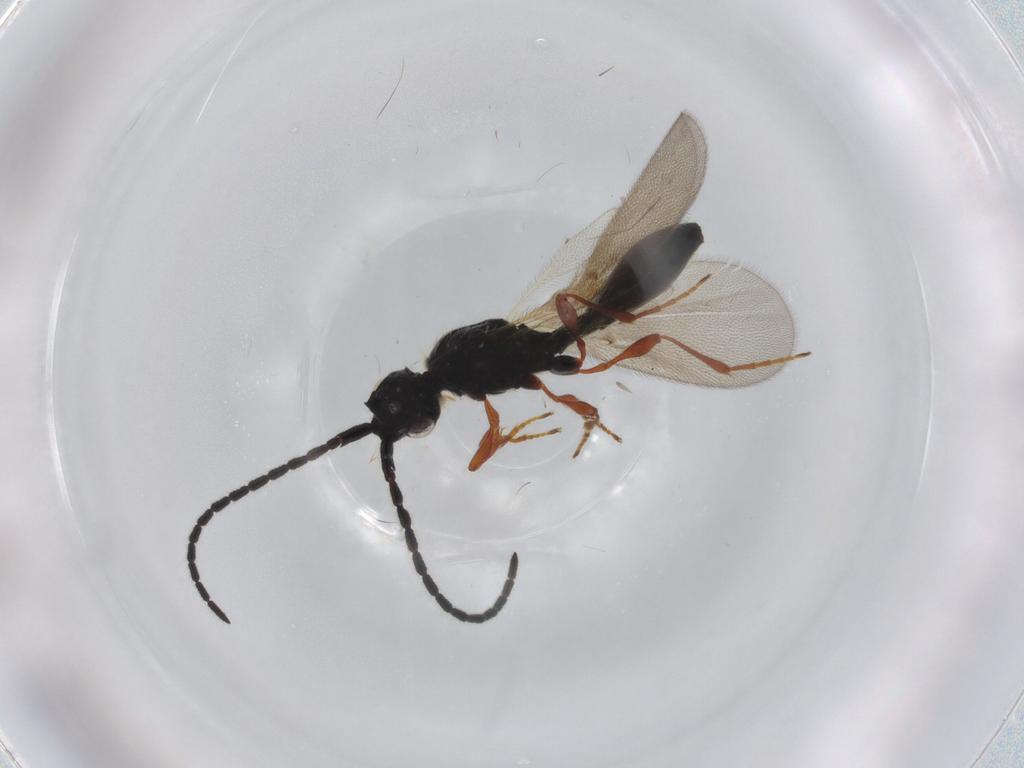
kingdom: Animalia
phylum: Arthropoda
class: Insecta
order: Hymenoptera
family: Diapriidae
